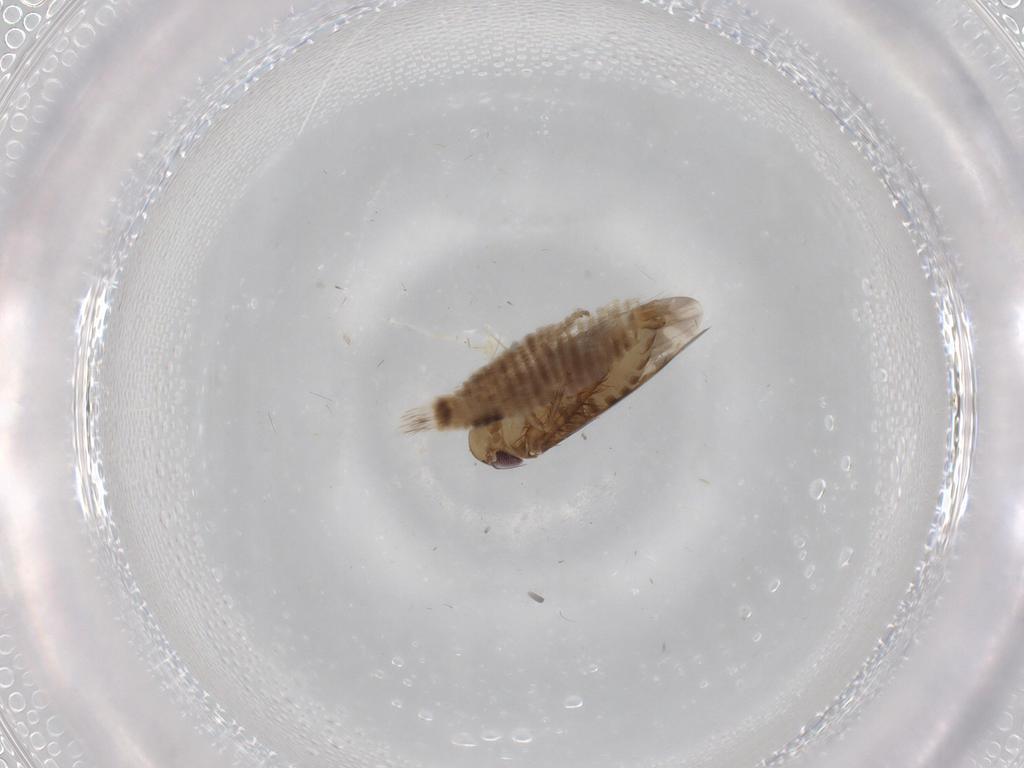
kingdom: Animalia
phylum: Arthropoda
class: Insecta
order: Hemiptera
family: Cicadellidae
